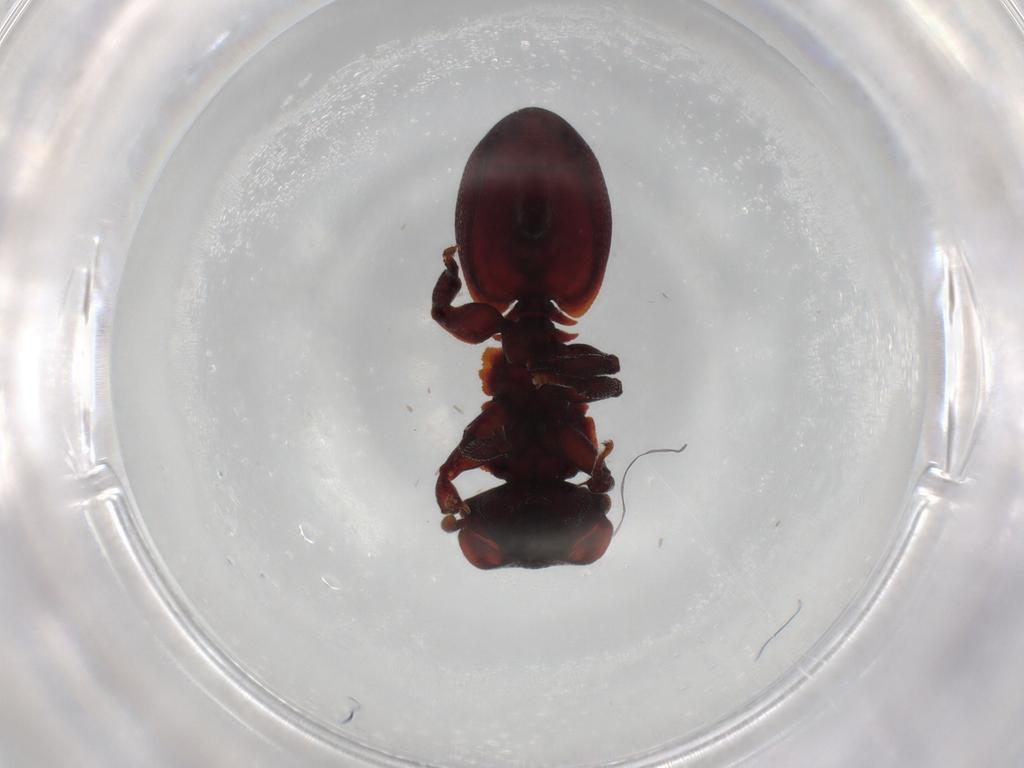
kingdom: Animalia
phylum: Arthropoda
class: Insecta
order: Hymenoptera
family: Formicidae
